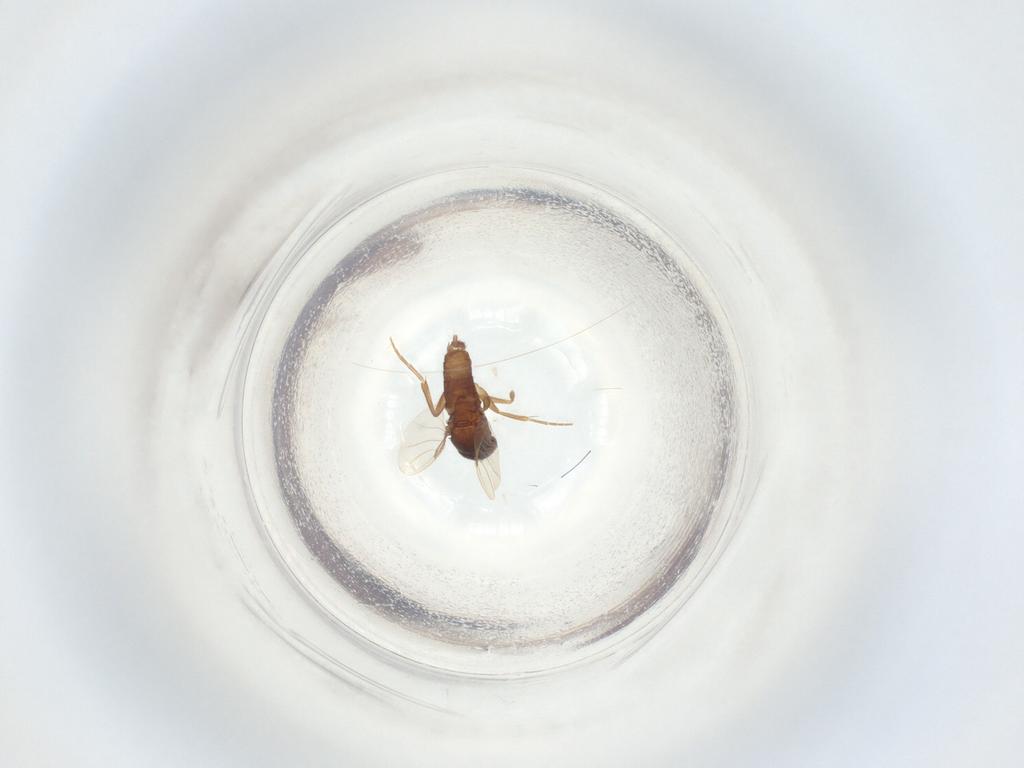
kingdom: Animalia
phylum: Arthropoda
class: Insecta
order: Diptera
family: Phoridae
